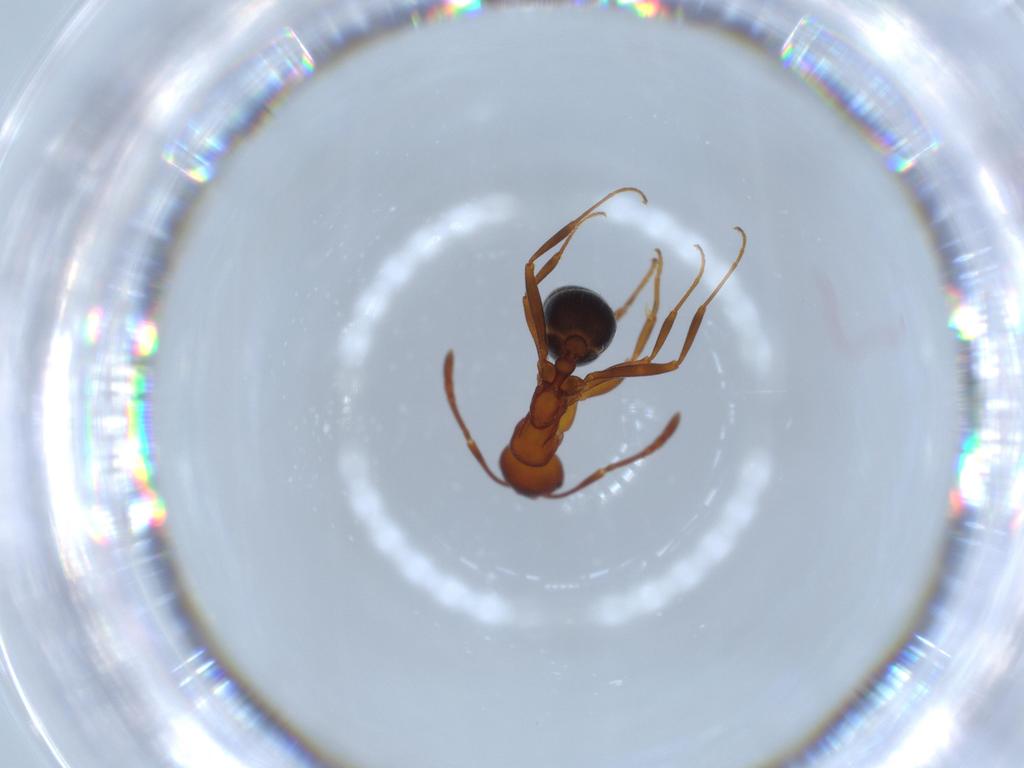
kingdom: Animalia
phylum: Arthropoda
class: Insecta
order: Hymenoptera
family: Formicidae
